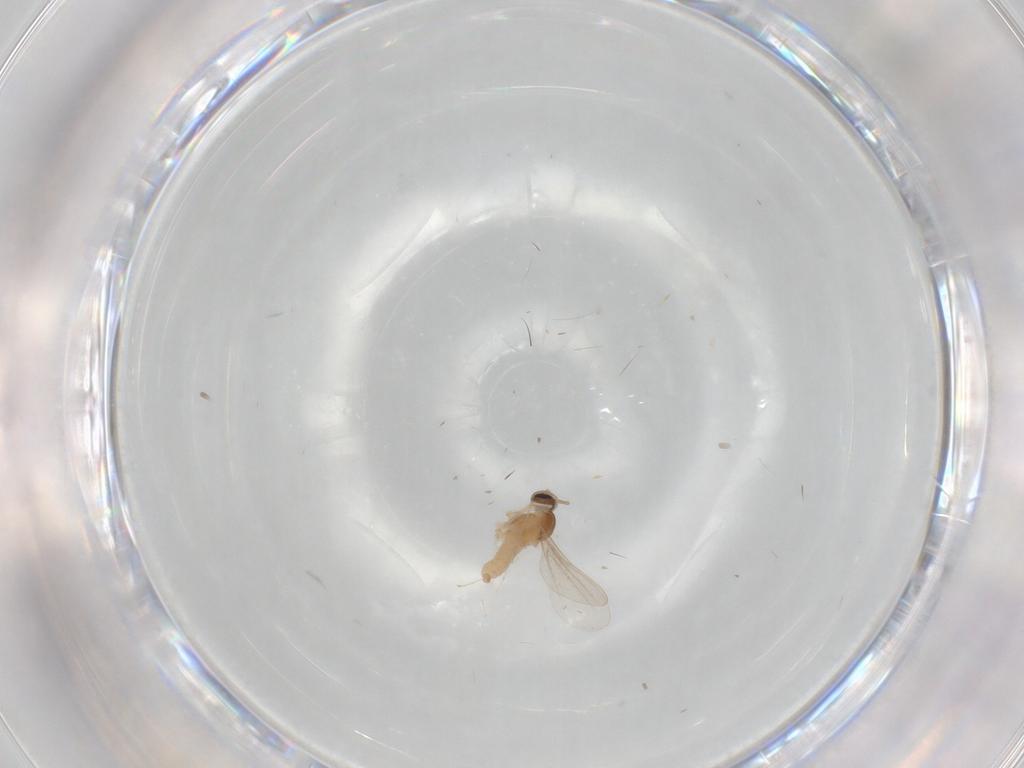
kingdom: Animalia
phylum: Arthropoda
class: Insecta
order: Diptera
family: Cecidomyiidae
